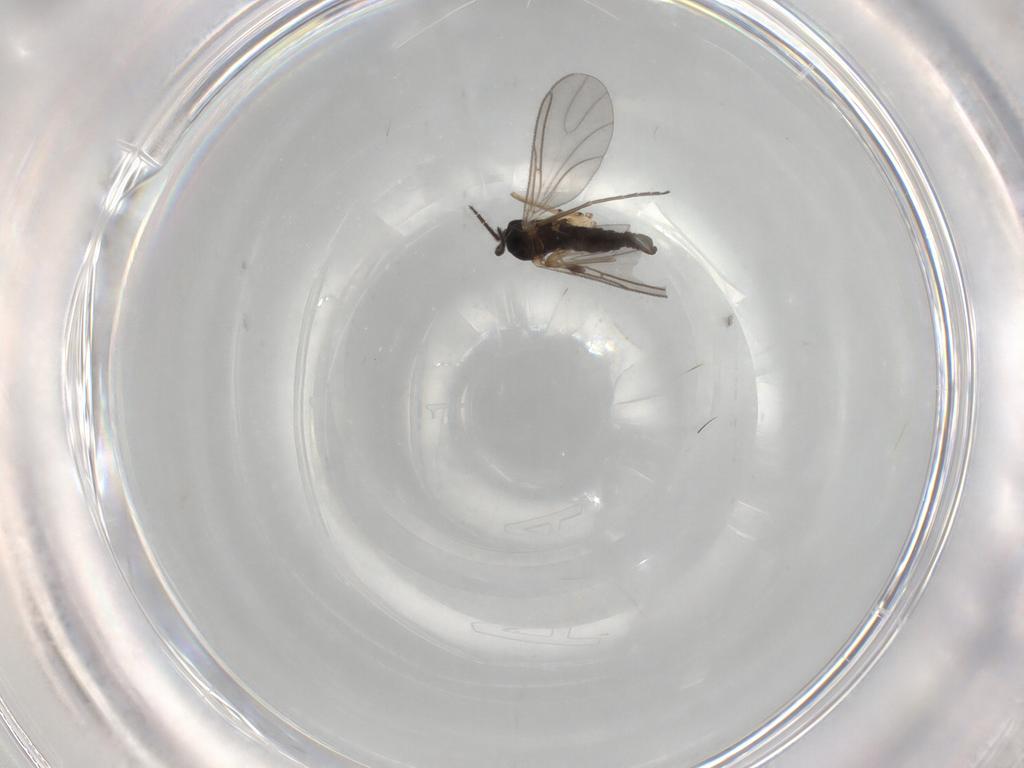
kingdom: Animalia
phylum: Arthropoda
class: Insecta
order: Diptera
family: Sciaridae
